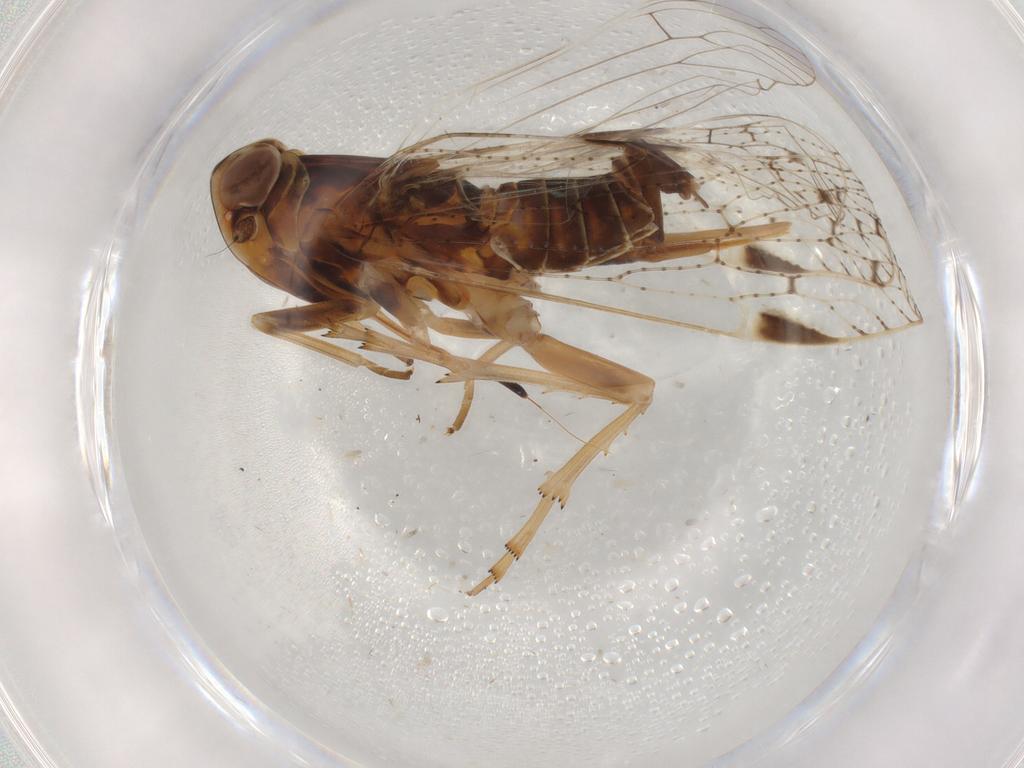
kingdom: Animalia
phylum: Arthropoda
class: Insecta
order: Hemiptera
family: Cixiidae
